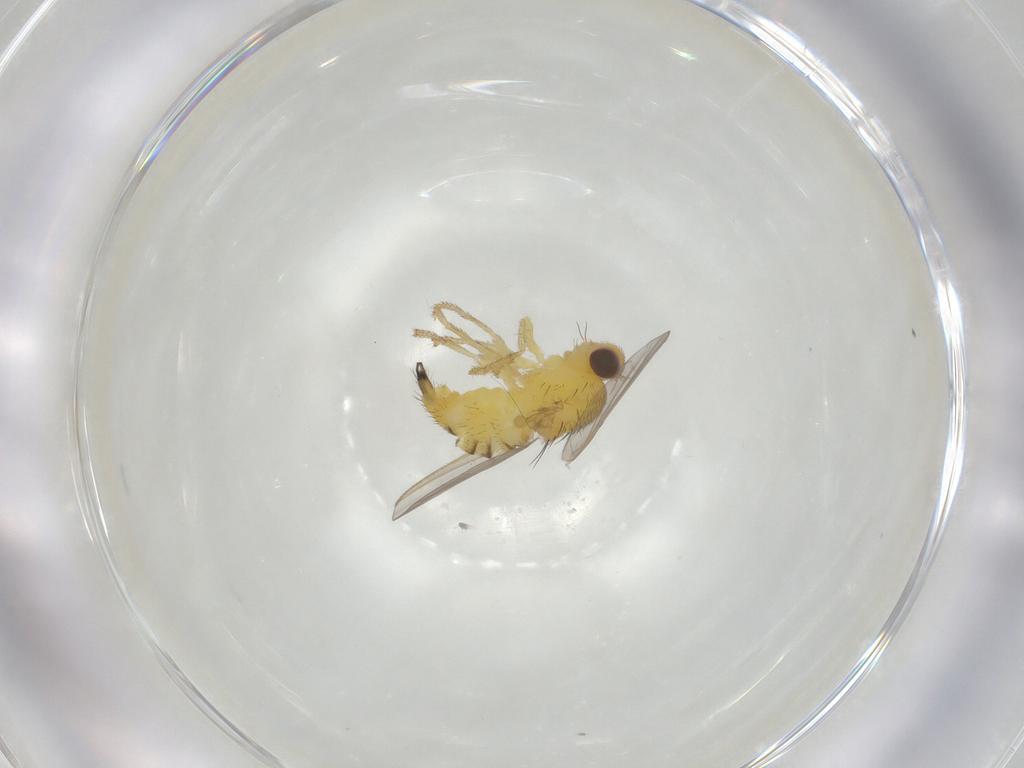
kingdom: Animalia
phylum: Arthropoda
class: Insecta
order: Diptera
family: Fergusoninidae
